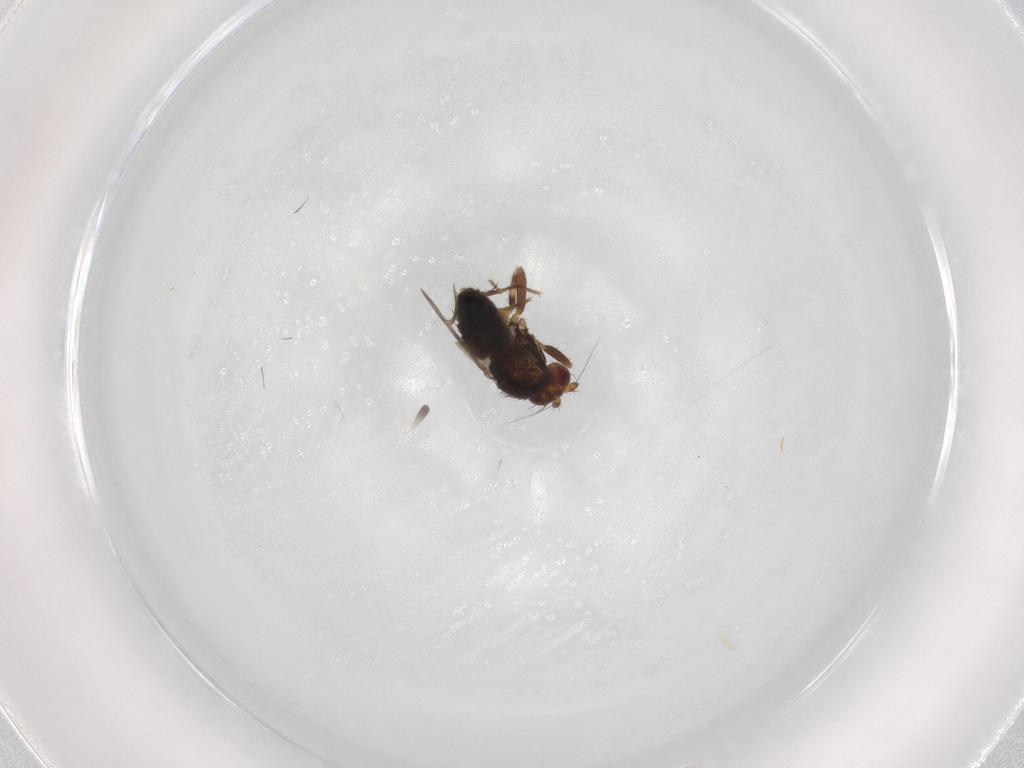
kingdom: Animalia
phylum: Arthropoda
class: Insecta
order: Diptera
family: Sphaeroceridae
